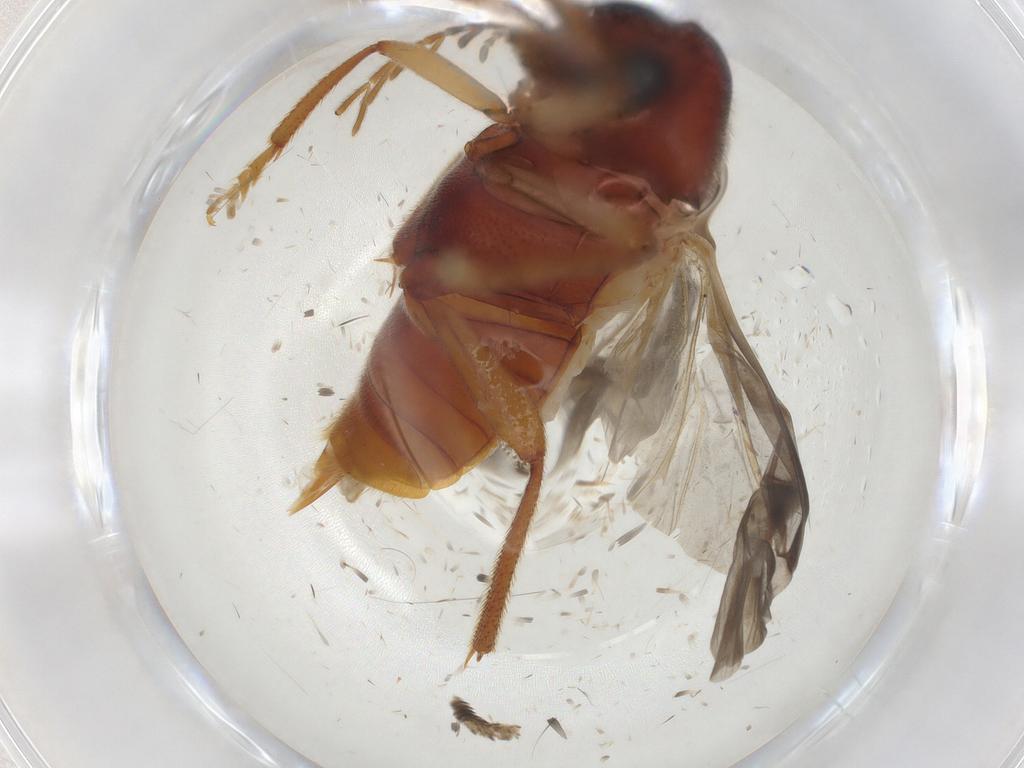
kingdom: Animalia
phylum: Arthropoda
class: Insecta
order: Coleoptera
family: Ptilodactylidae
